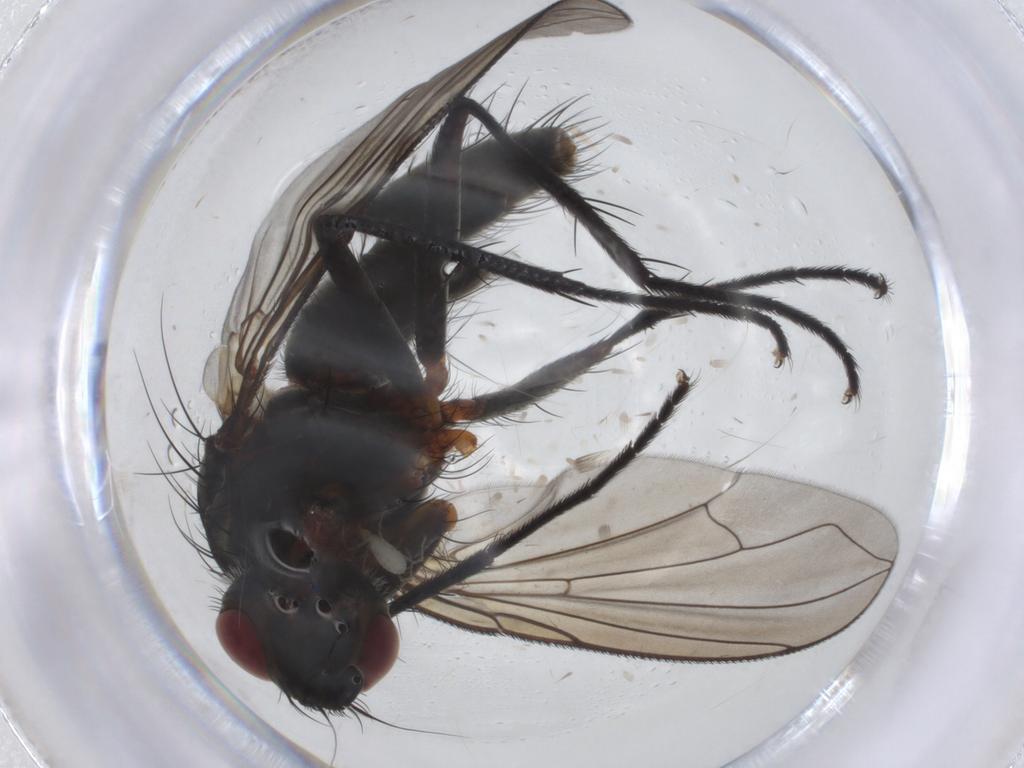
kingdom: Animalia
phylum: Arthropoda
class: Insecta
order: Diptera
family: Tachinidae
